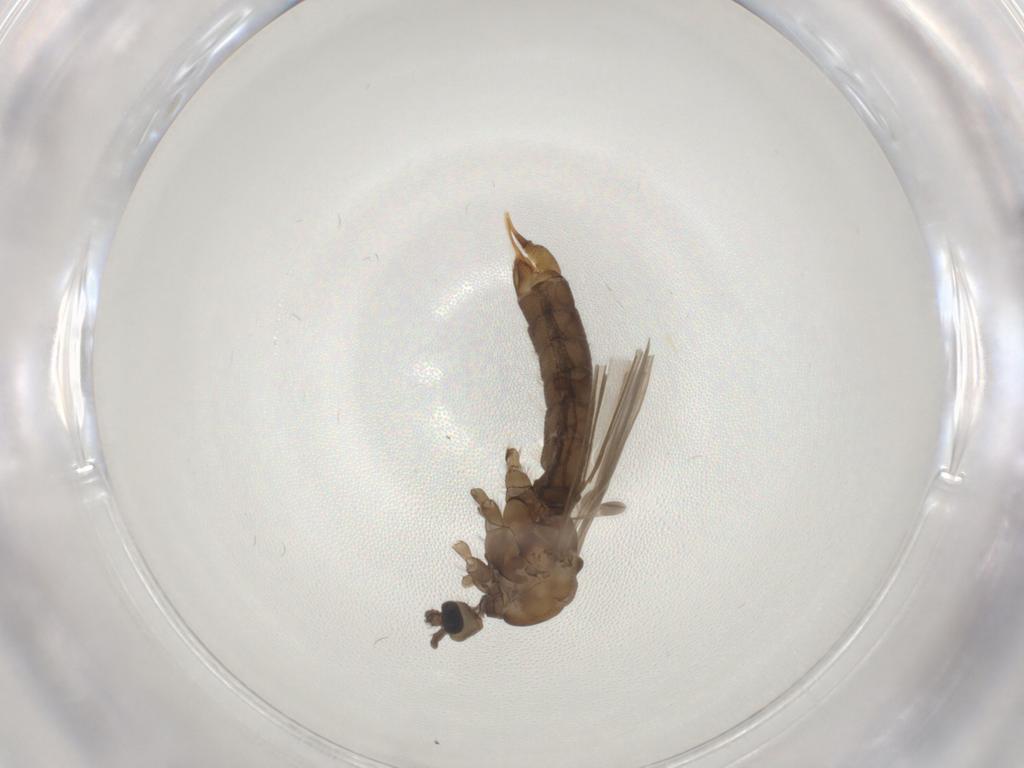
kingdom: Animalia
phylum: Arthropoda
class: Insecta
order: Diptera
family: Limoniidae
